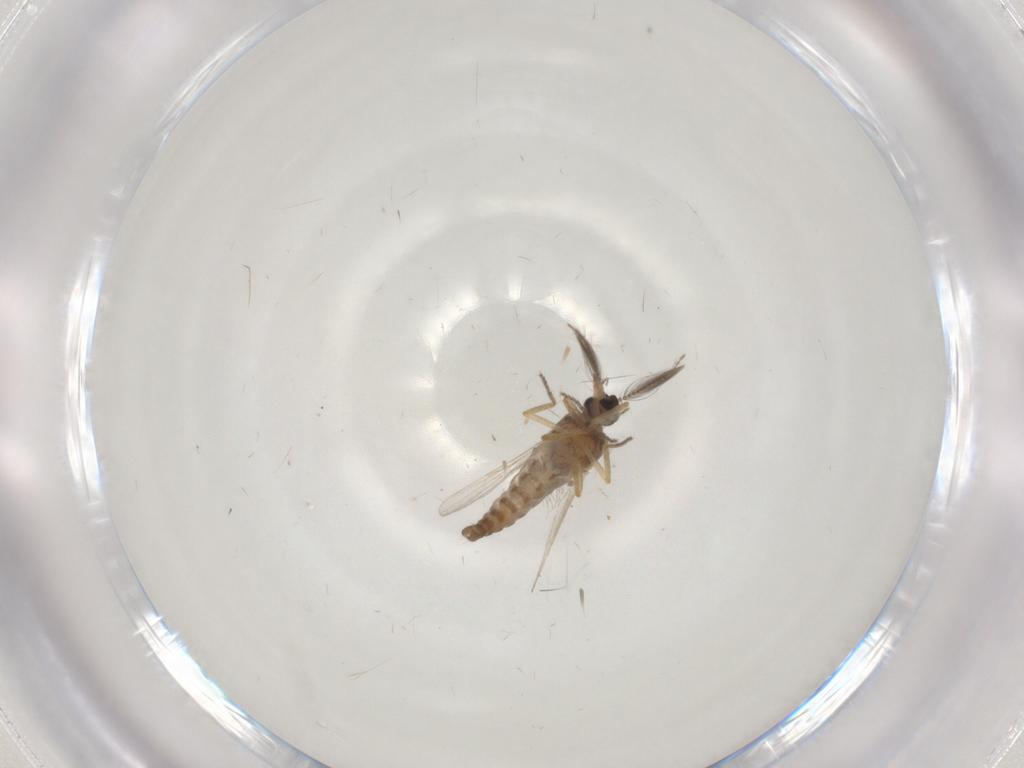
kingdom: Animalia
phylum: Arthropoda
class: Insecta
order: Diptera
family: Ceratopogonidae
